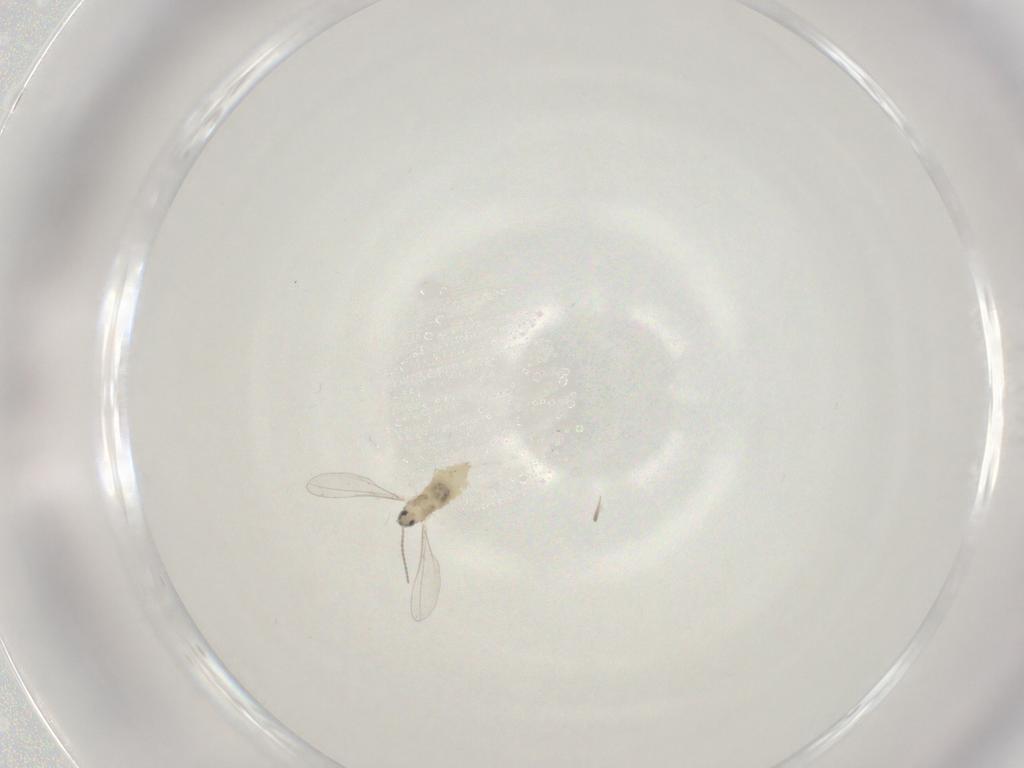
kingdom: Animalia
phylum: Arthropoda
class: Insecta
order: Diptera
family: Cecidomyiidae
